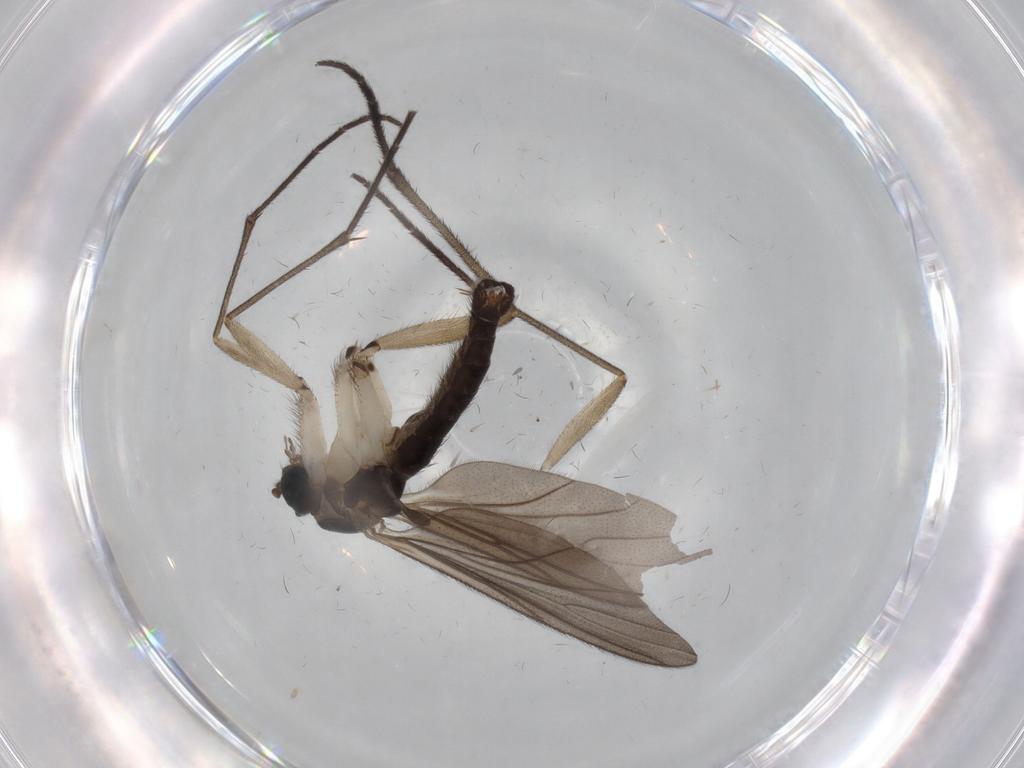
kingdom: Animalia
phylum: Arthropoda
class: Insecta
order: Diptera
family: Sciaridae
